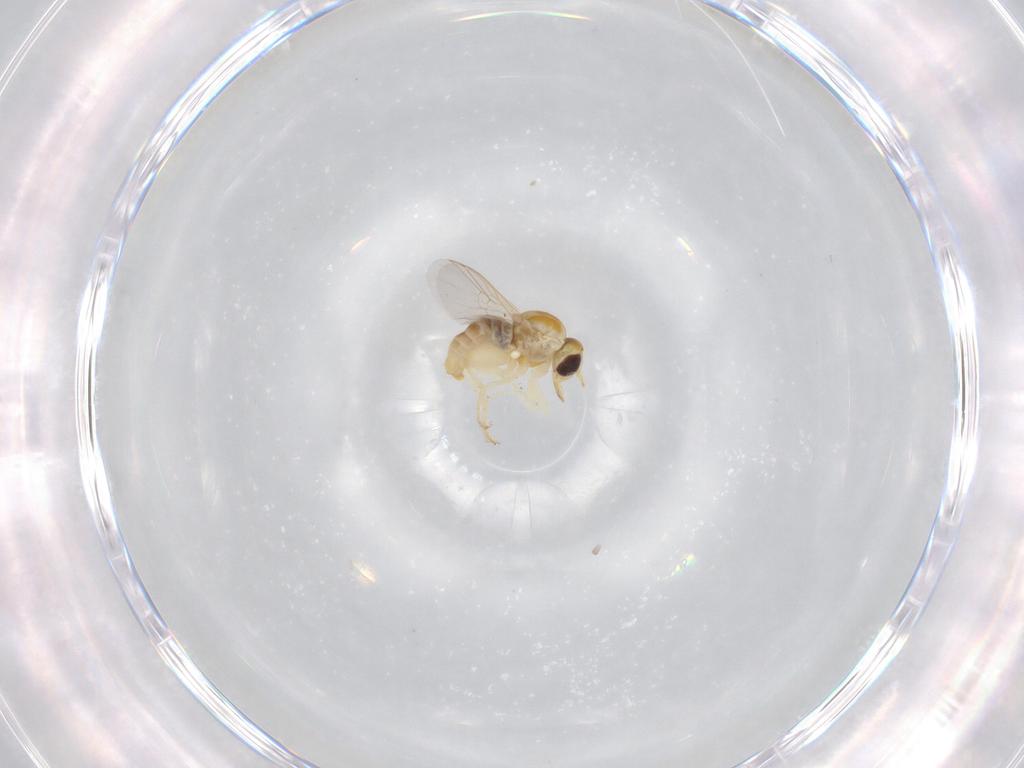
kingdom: Animalia
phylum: Arthropoda
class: Insecta
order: Diptera
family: Mythicomyiidae
